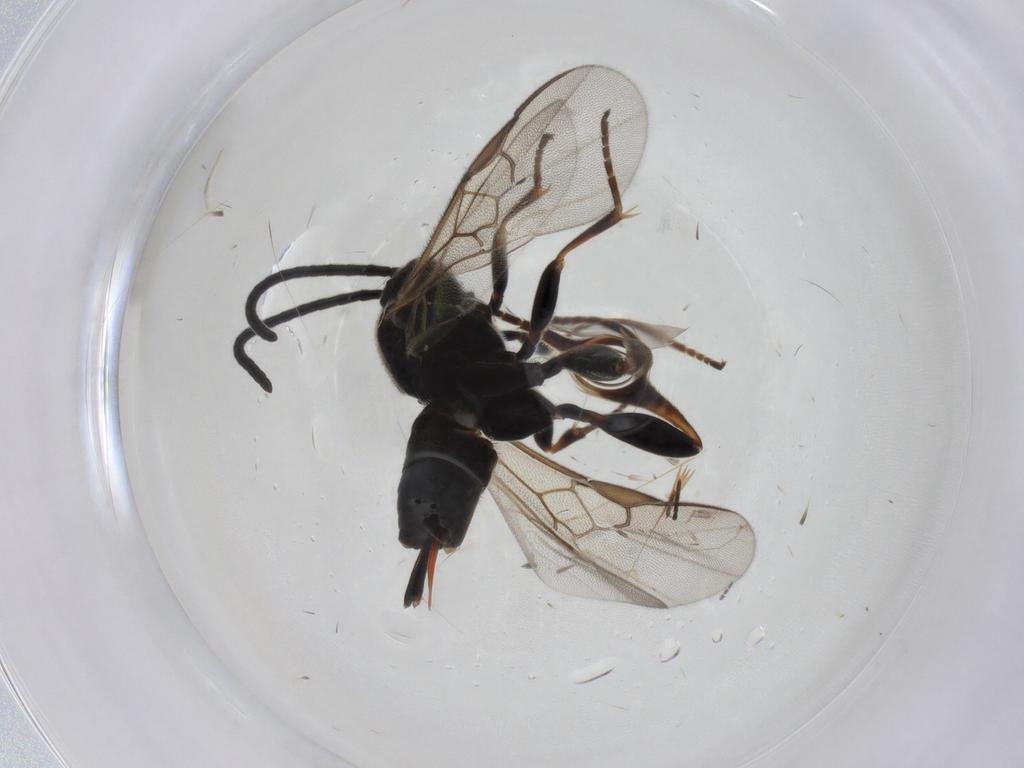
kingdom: Animalia
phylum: Arthropoda
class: Insecta
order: Hymenoptera
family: Braconidae
